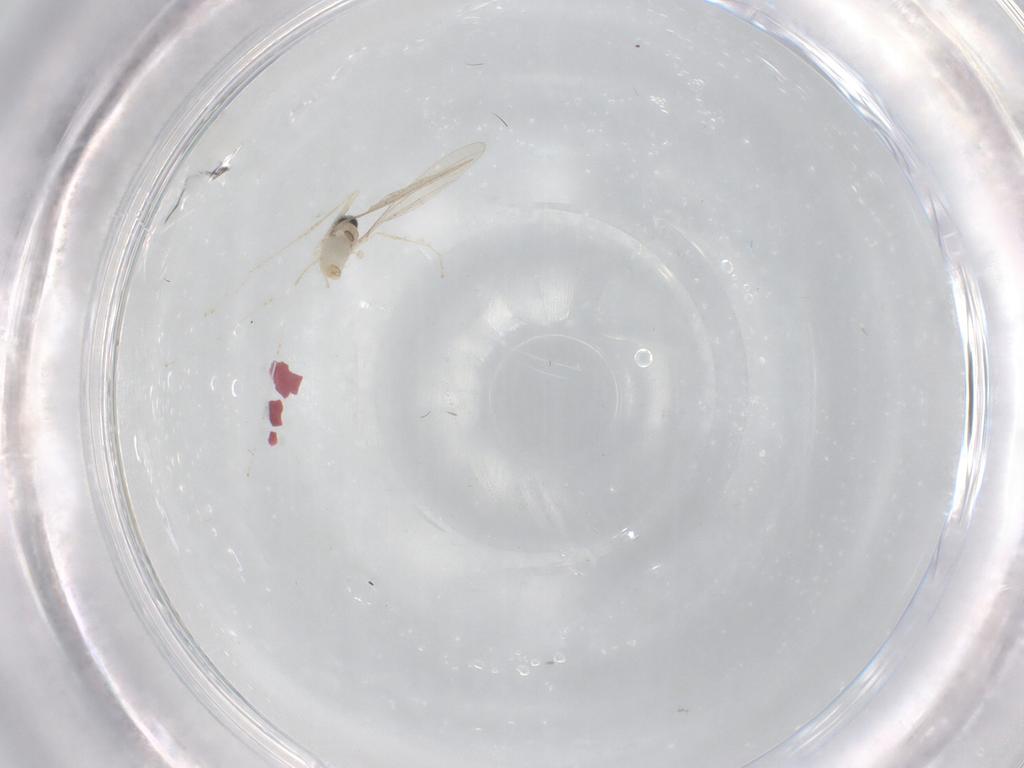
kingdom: Animalia
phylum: Arthropoda
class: Insecta
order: Diptera
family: Cecidomyiidae
